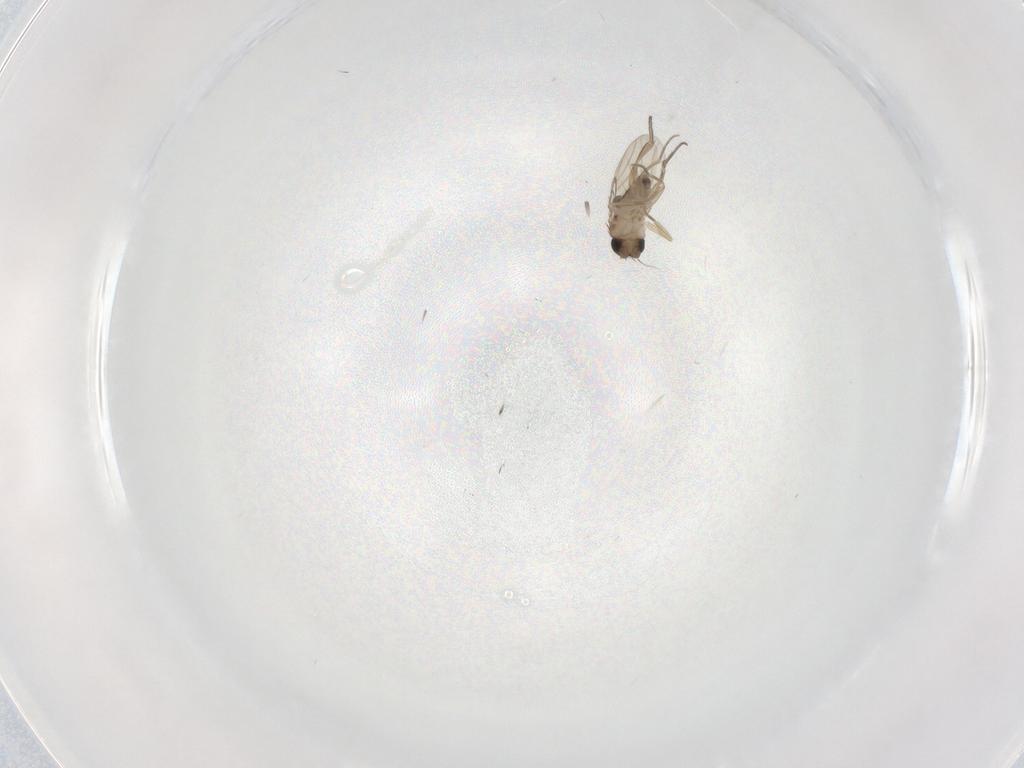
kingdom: Animalia
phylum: Arthropoda
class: Insecta
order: Diptera
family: Phoridae
